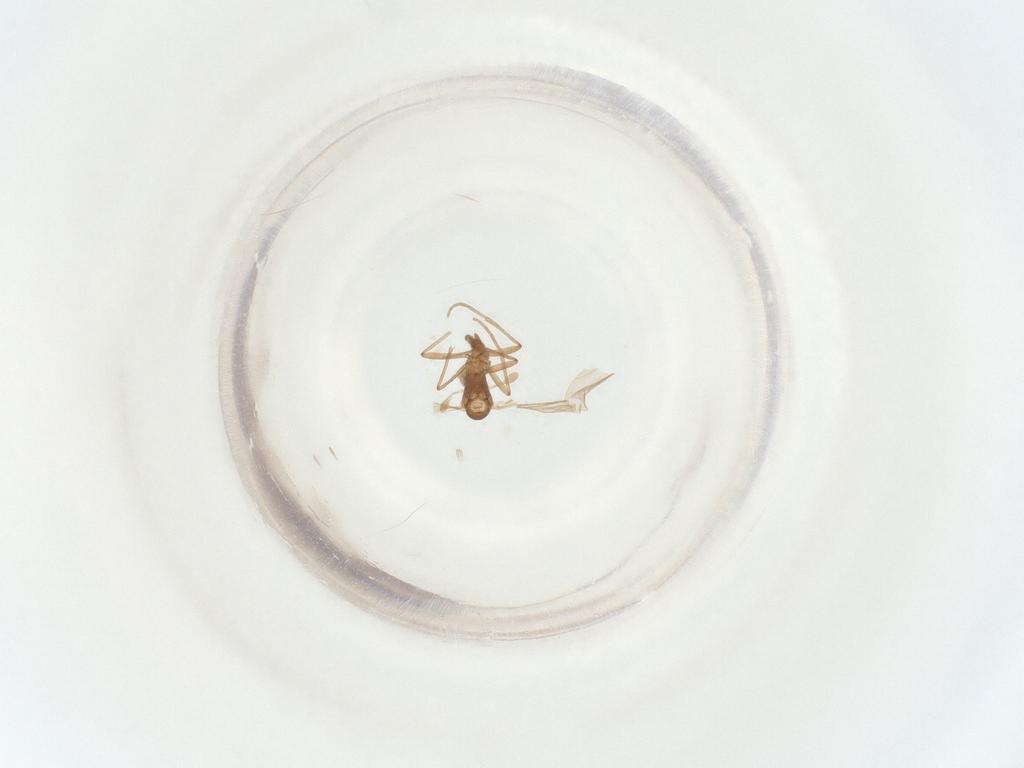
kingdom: Animalia
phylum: Arthropoda
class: Insecta
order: Diptera
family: Sciaridae
